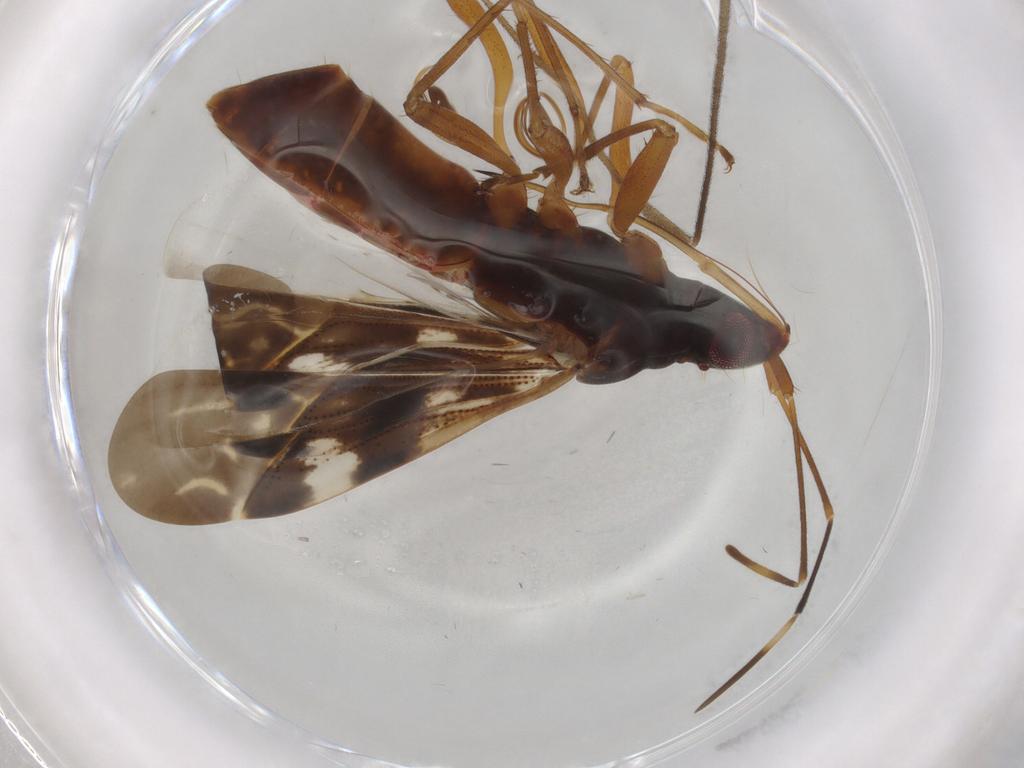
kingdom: Animalia
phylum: Arthropoda
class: Insecta
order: Hemiptera
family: Rhyparochromidae
